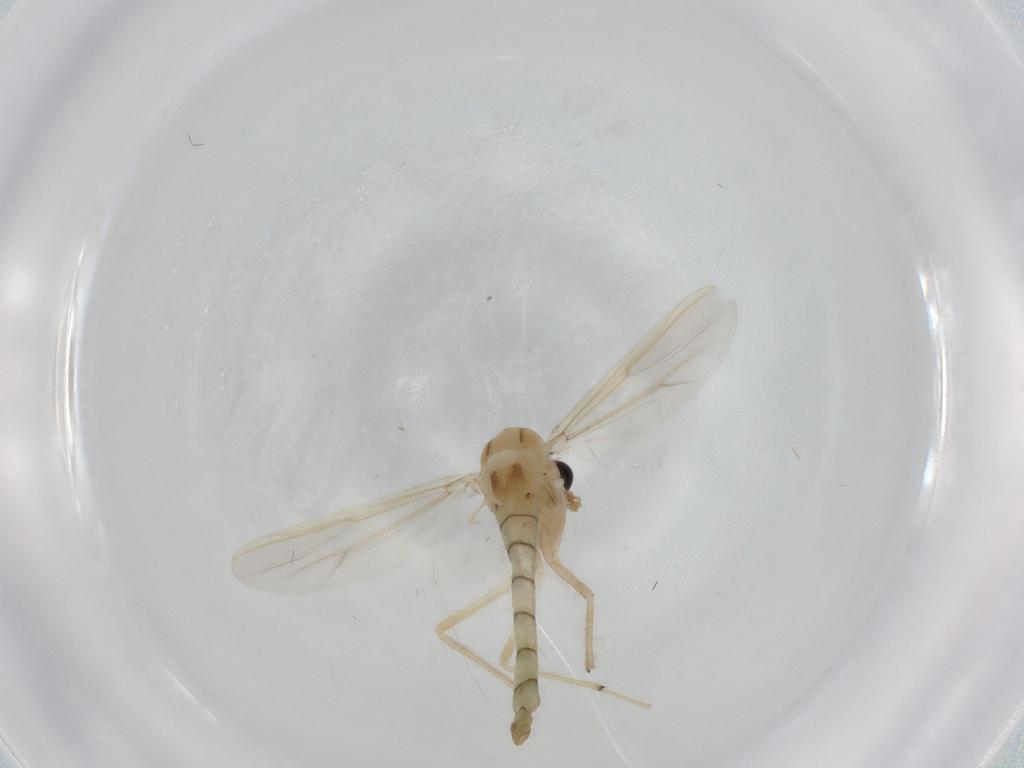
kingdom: Animalia
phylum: Arthropoda
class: Insecta
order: Diptera
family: Chironomidae
